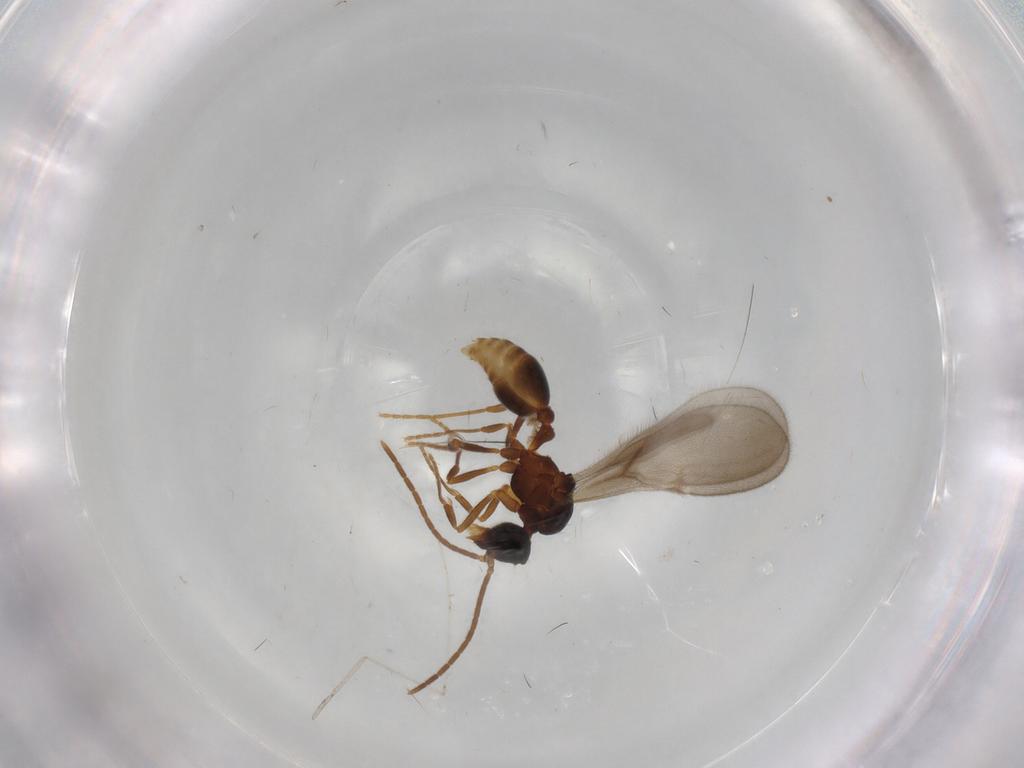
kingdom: Animalia
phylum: Arthropoda
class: Insecta
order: Hymenoptera
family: Formicidae
